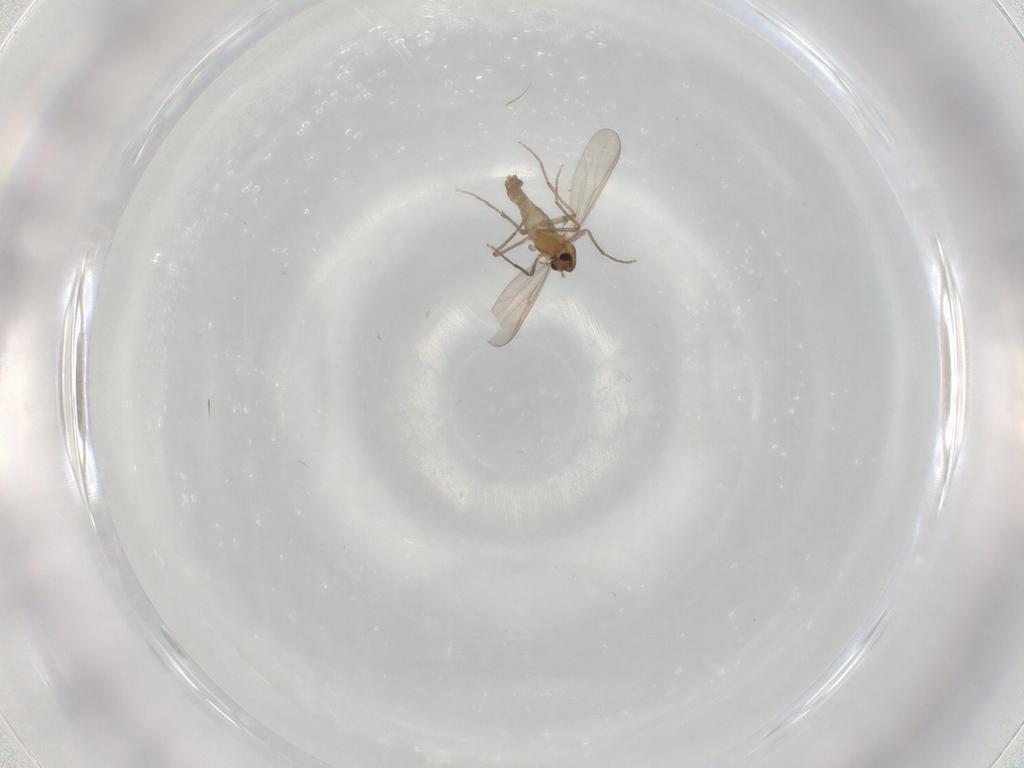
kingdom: Animalia
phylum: Arthropoda
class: Insecta
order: Diptera
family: Chironomidae
